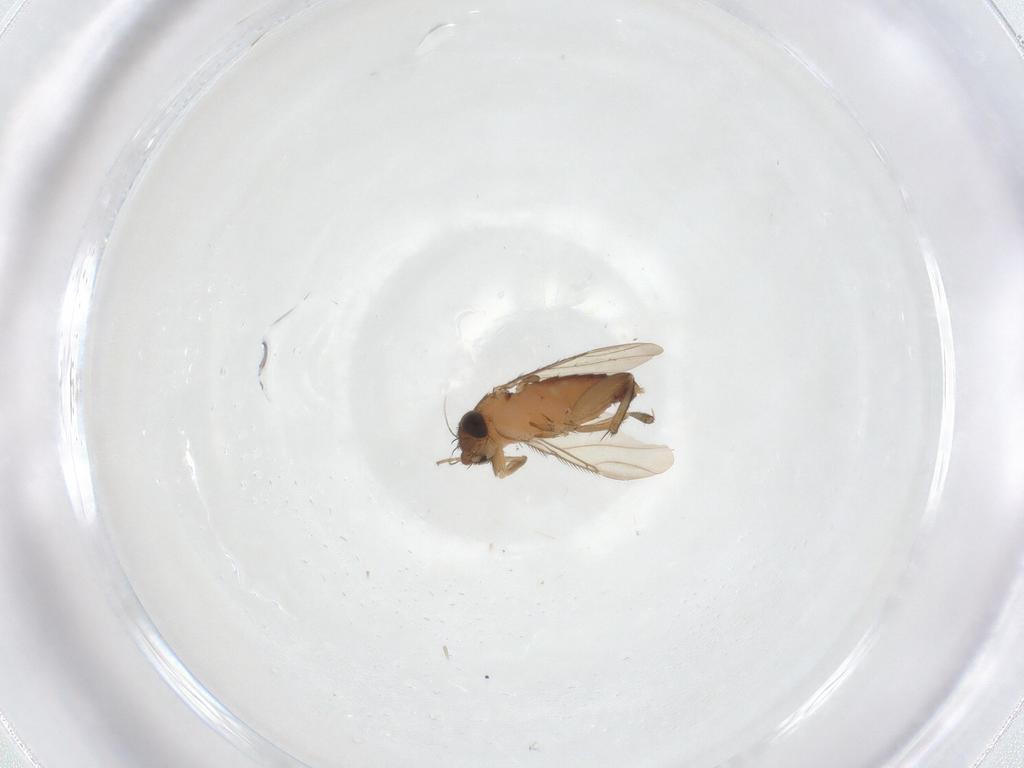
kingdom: Animalia
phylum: Arthropoda
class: Insecta
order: Diptera
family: Phoridae
